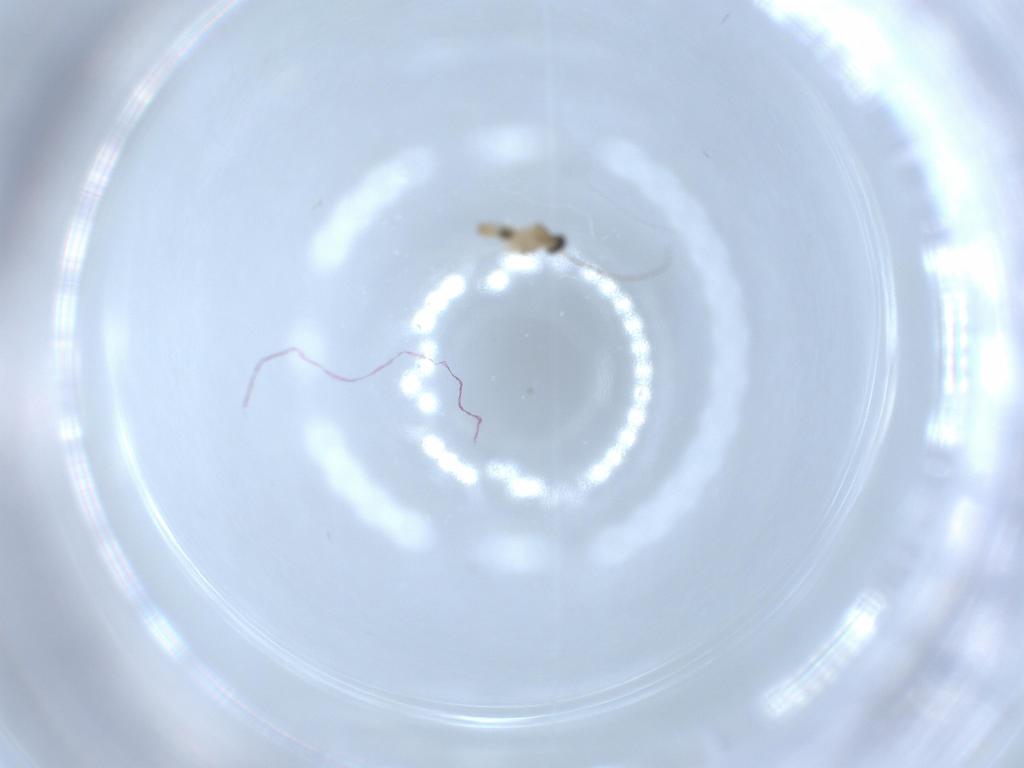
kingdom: Animalia
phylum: Arthropoda
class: Insecta
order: Diptera
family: Cecidomyiidae
